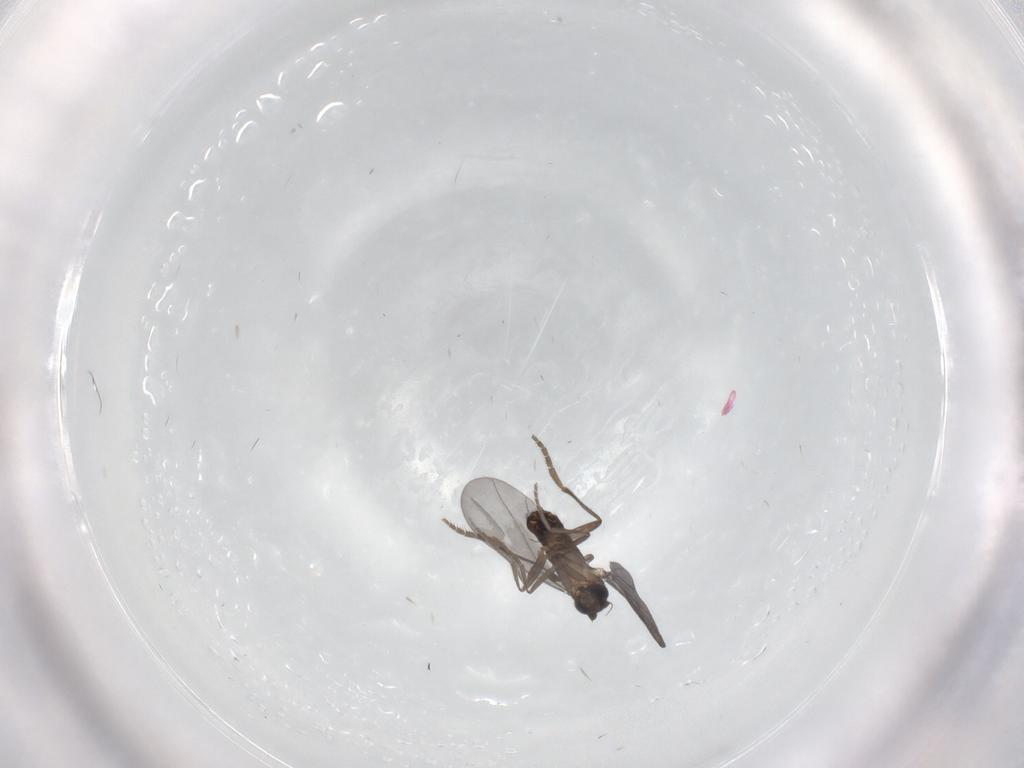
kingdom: Animalia
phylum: Arthropoda
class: Insecta
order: Diptera
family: Phoridae
